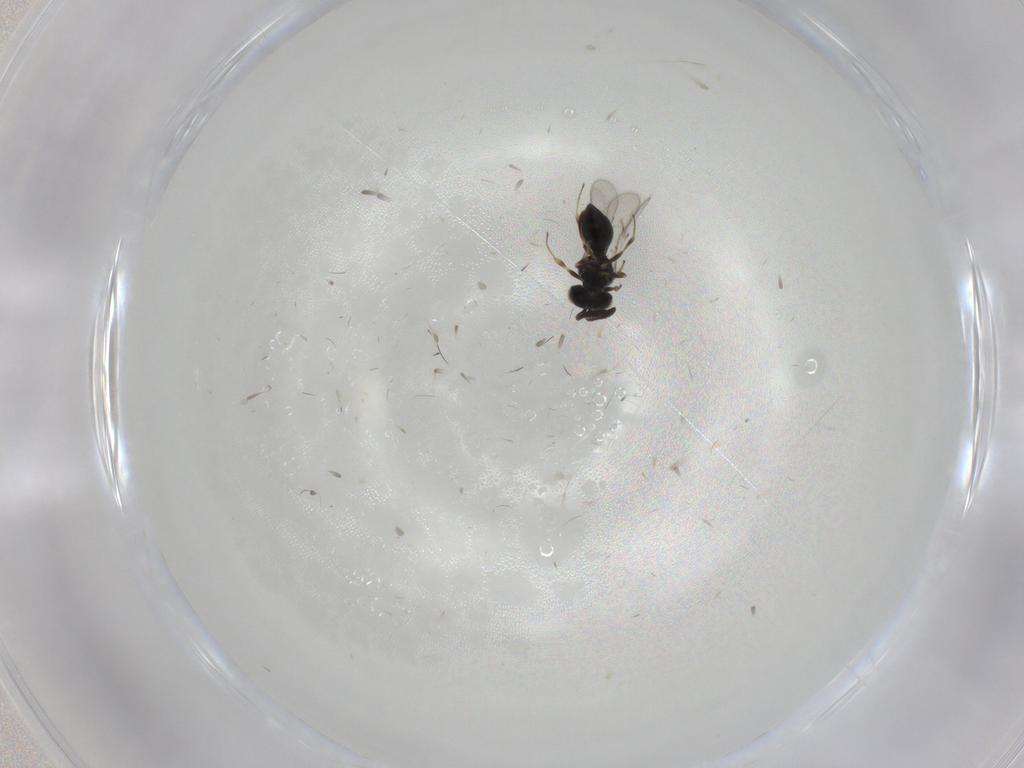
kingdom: Animalia
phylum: Arthropoda
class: Insecta
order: Hymenoptera
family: Scelionidae
